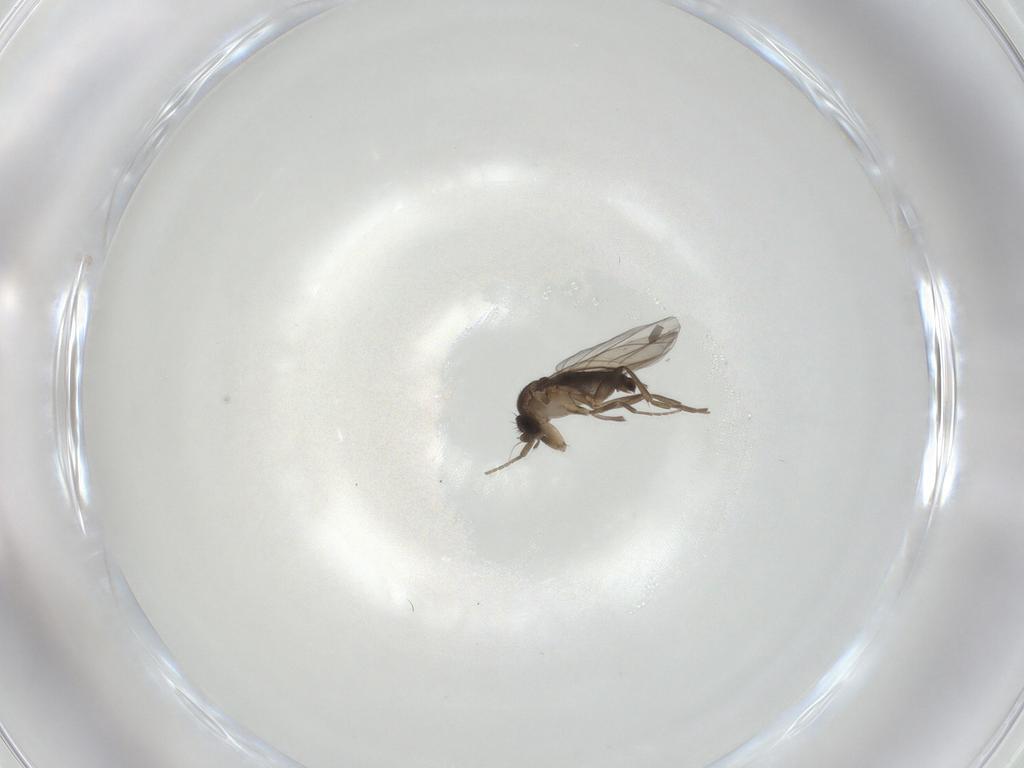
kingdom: Animalia
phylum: Arthropoda
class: Insecta
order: Diptera
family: Phoridae
